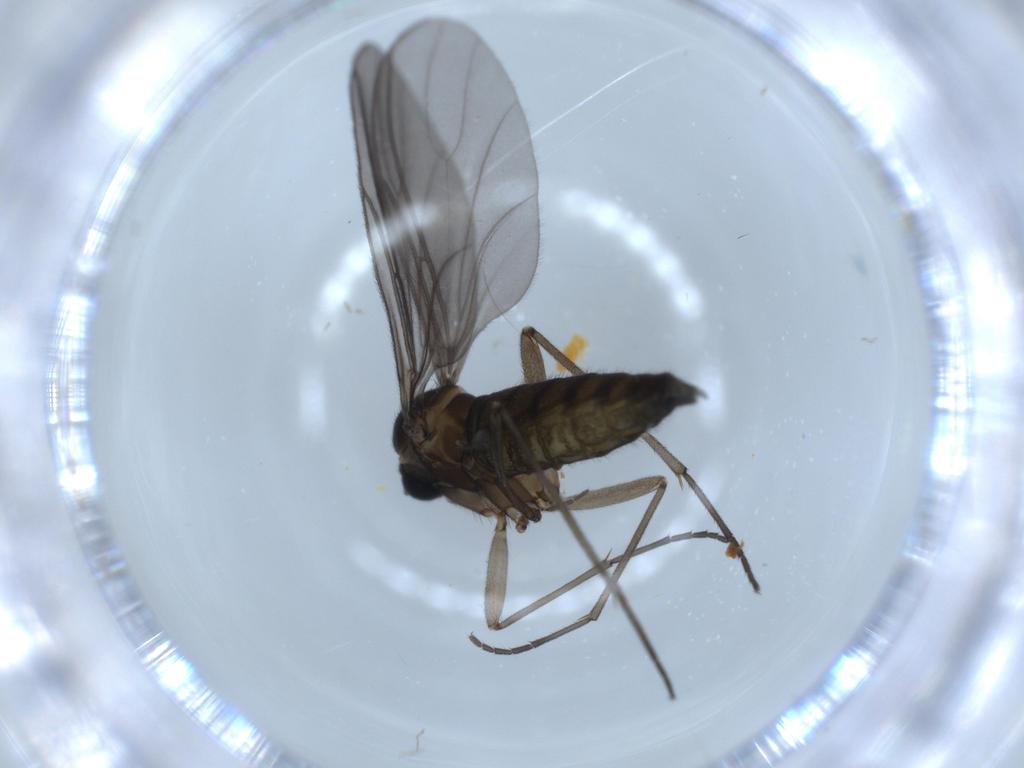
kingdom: Animalia
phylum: Arthropoda
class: Insecta
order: Diptera
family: Sciaridae
